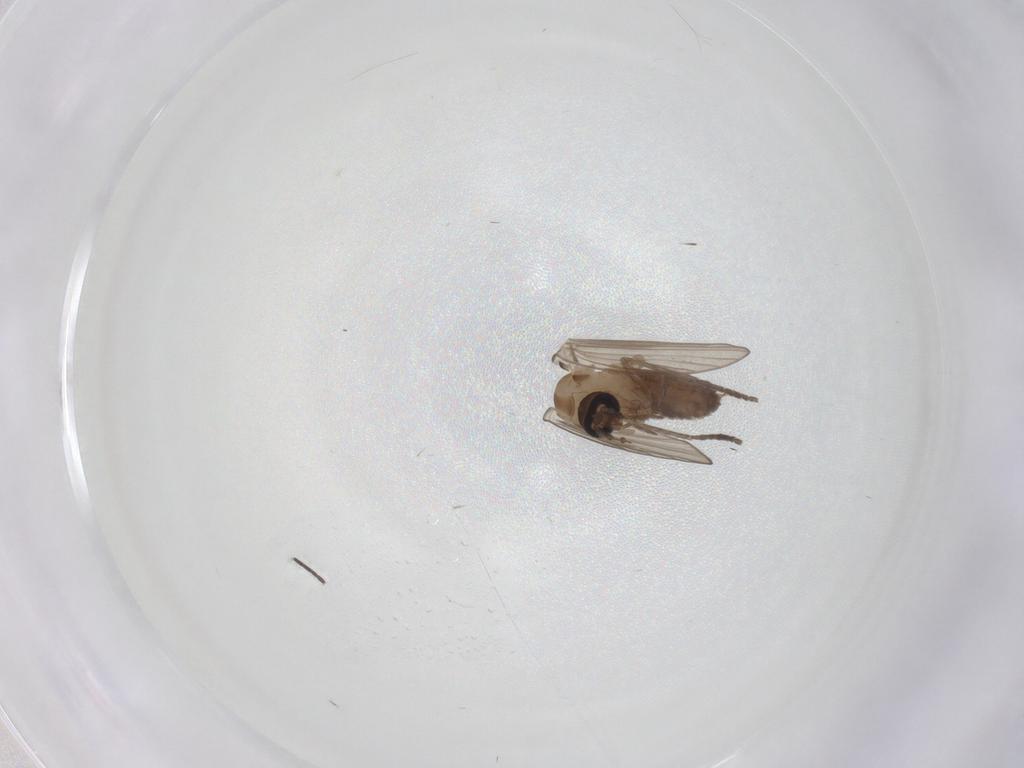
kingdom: Animalia
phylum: Arthropoda
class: Insecta
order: Diptera
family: Psychodidae
